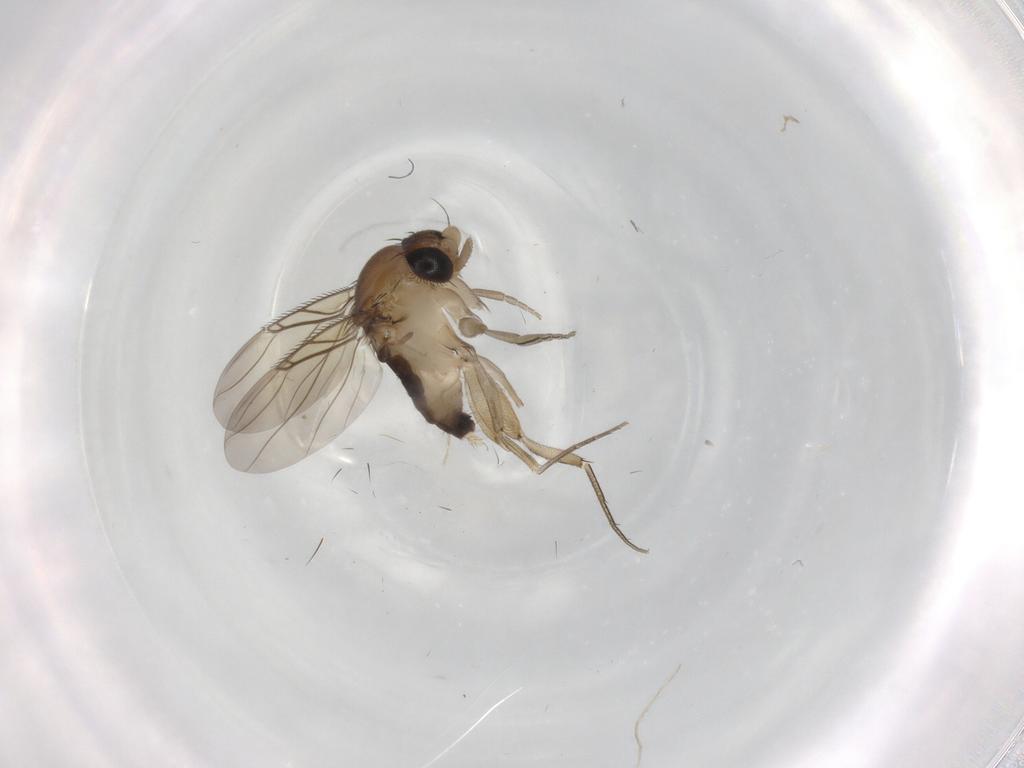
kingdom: Animalia
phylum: Arthropoda
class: Insecta
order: Diptera
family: Phoridae
